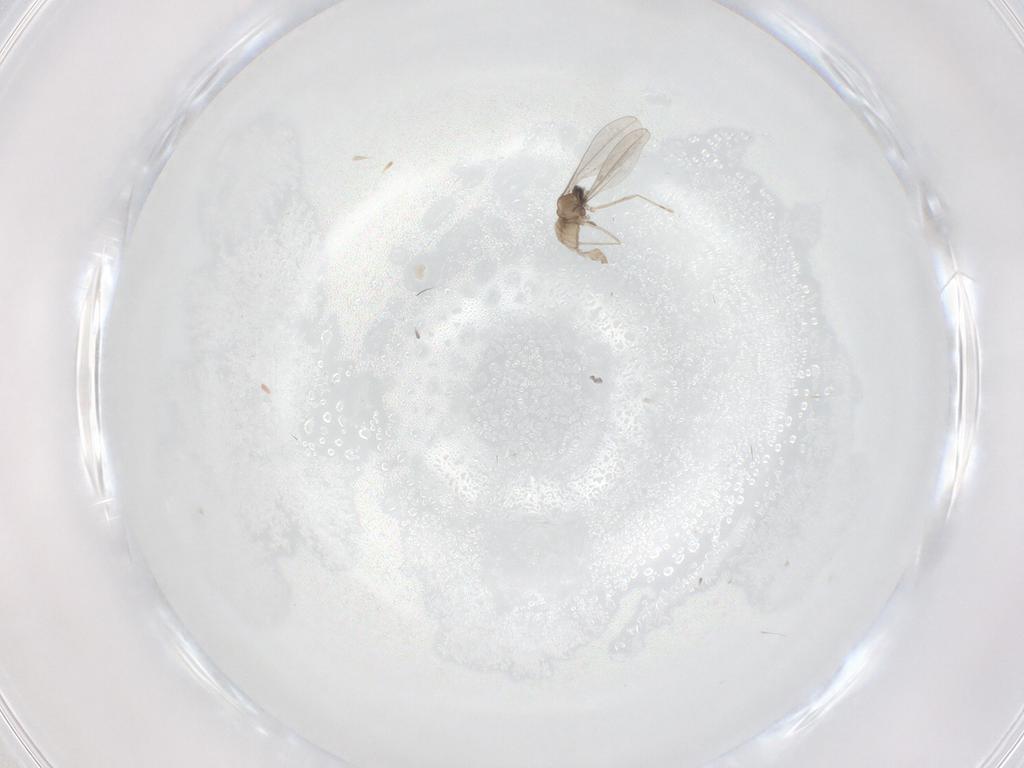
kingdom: Animalia
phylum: Arthropoda
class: Insecta
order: Diptera
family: Cecidomyiidae
